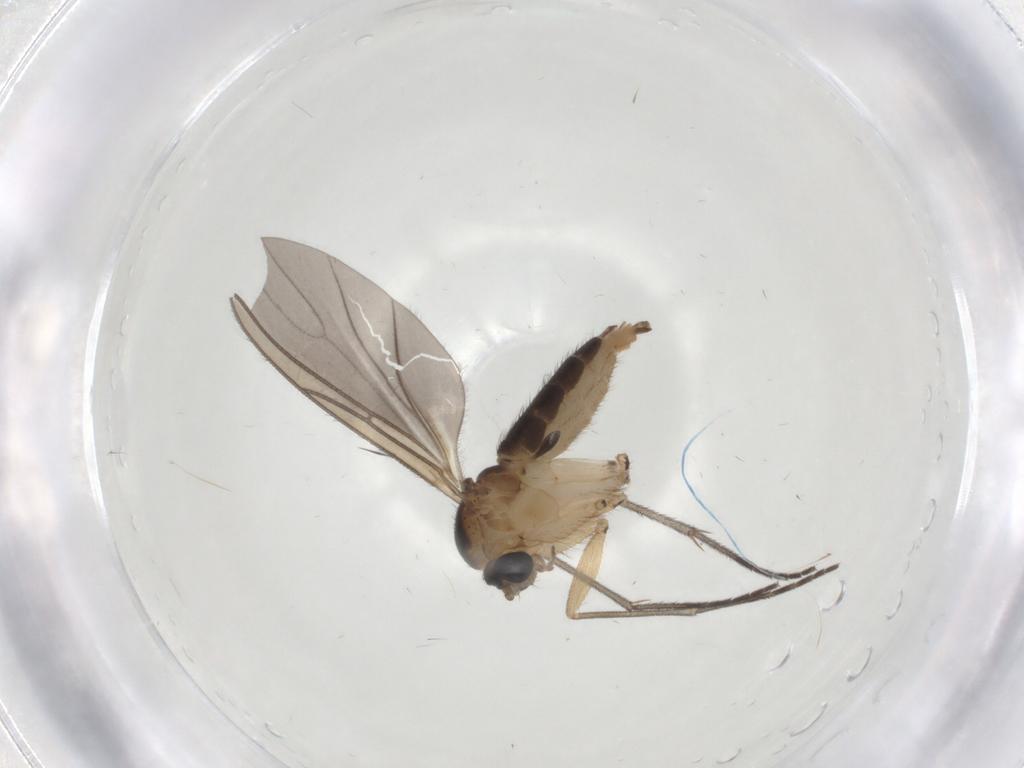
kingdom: Animalia
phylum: Arthropoda
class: Insecta
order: Diptera
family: Sciaridae
